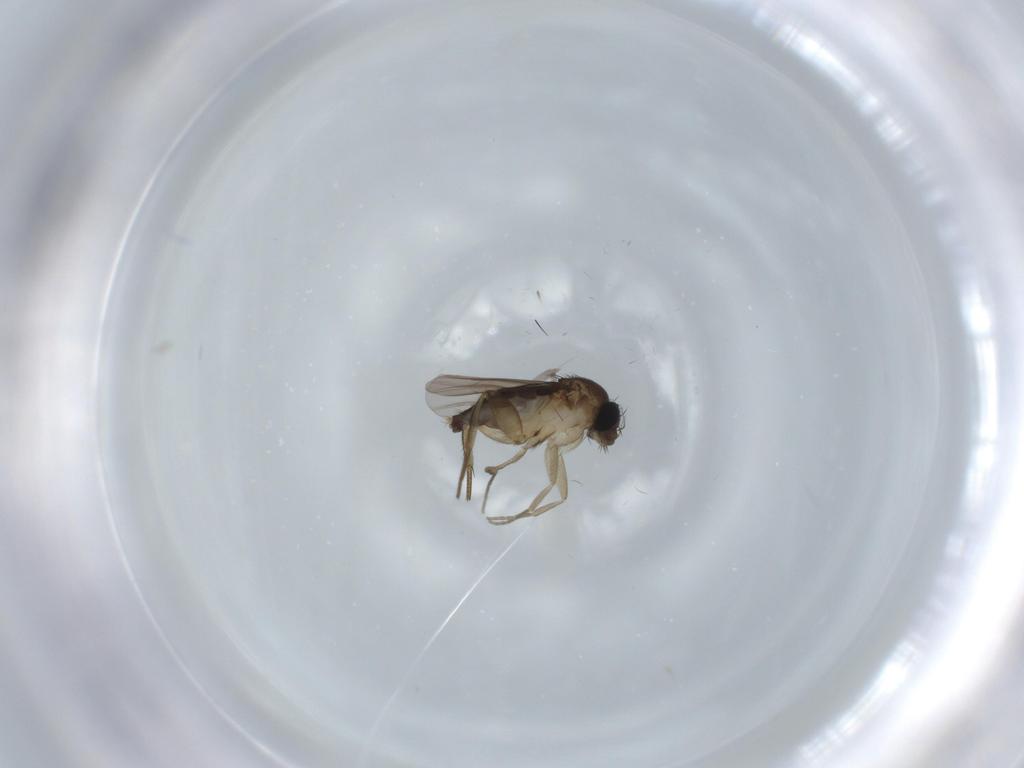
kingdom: Animalia
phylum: Arthropoda
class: Insecta
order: Diptera
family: Phoridae
